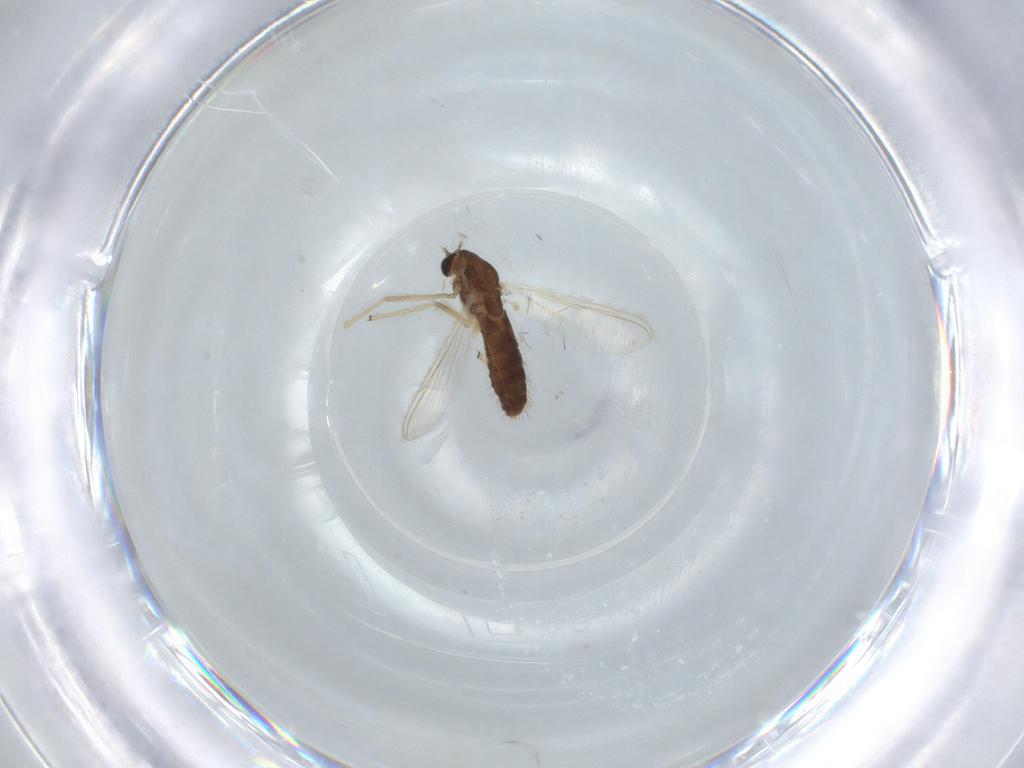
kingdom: Animalia
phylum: Arthropoda
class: Insecta
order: Diptera
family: Chironomidae
